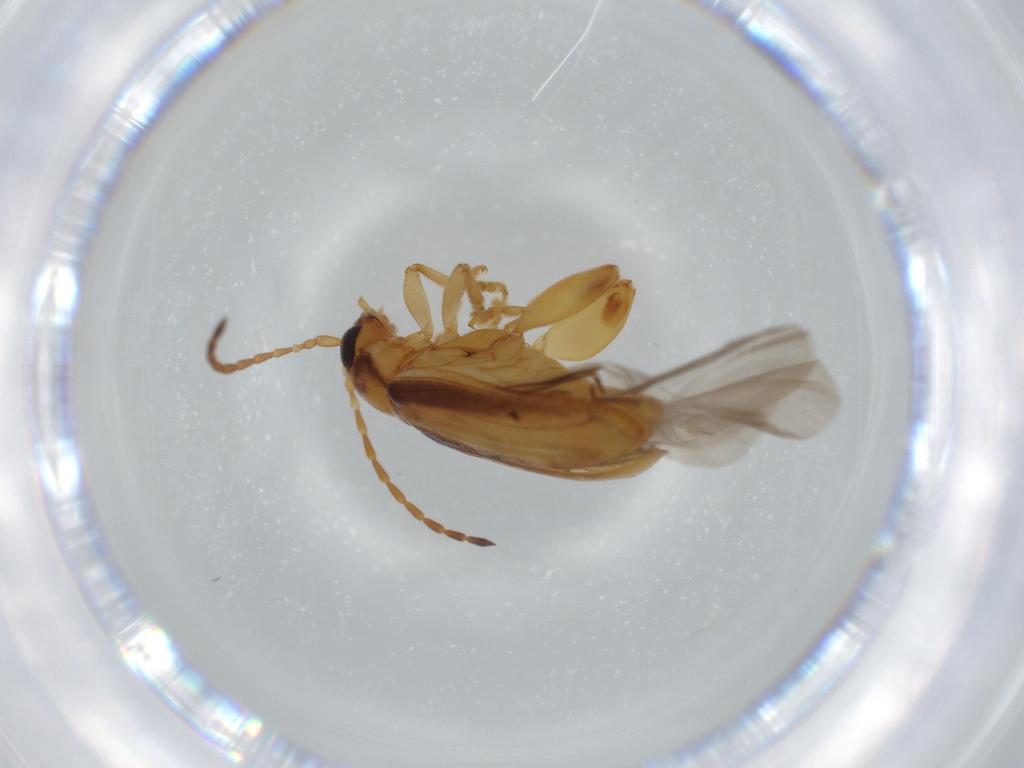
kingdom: Animalia
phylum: Arthropoda
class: Insecta
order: Coleoptera
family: Chrysomelidae
